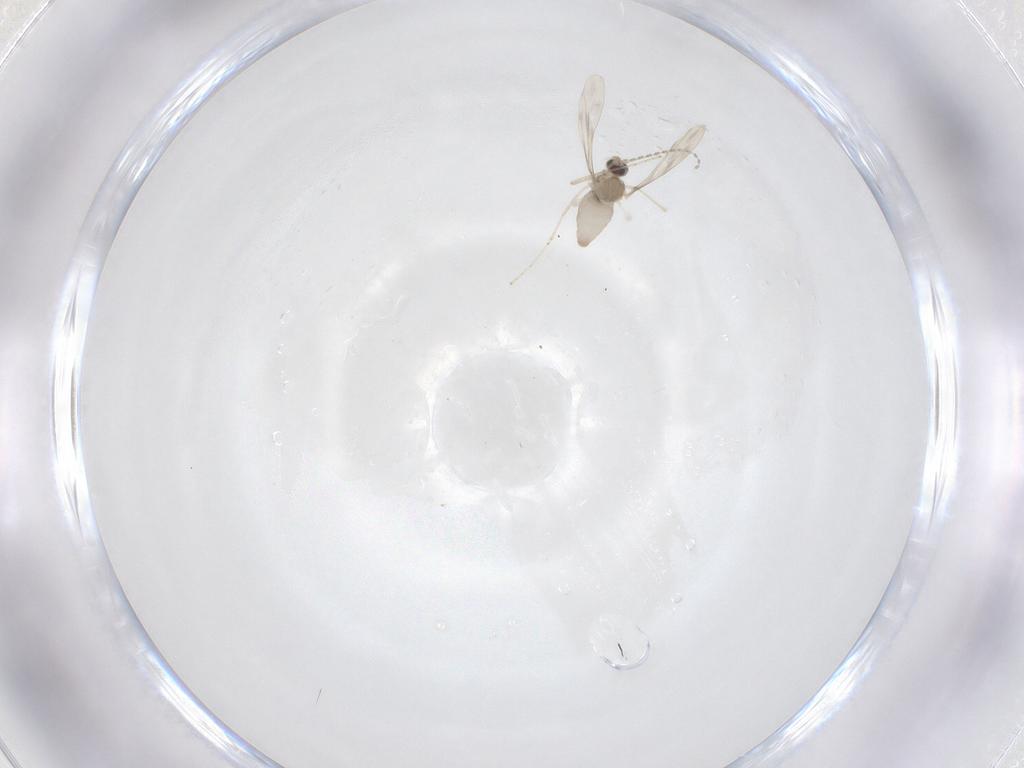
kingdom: Animalia
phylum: Arthropoda
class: Insecta
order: Diptera
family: Cecidomyiidae
